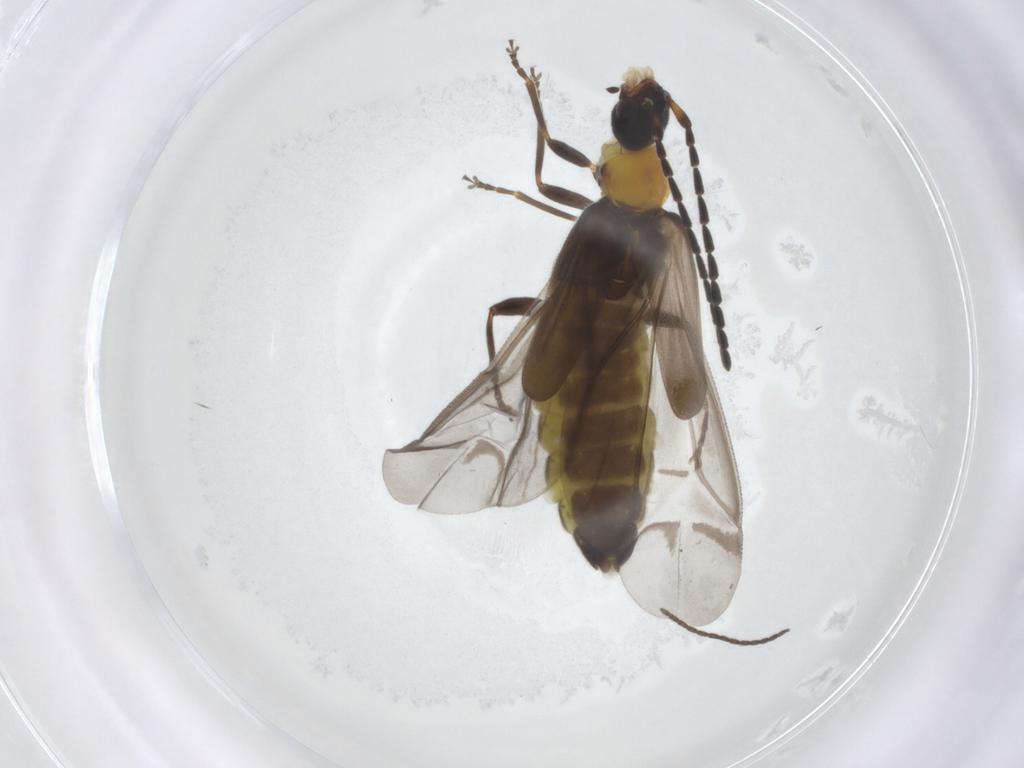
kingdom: Animalia
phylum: Arthropoda
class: Insecta
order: Coleoptera
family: Cantharidae
